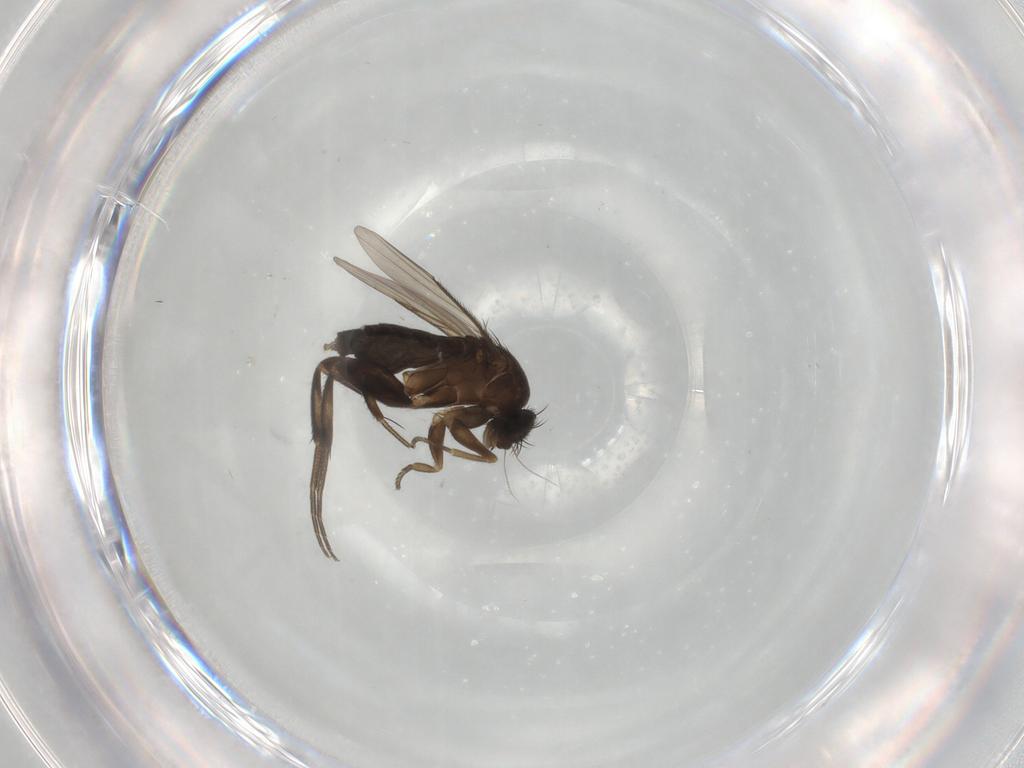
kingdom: Animalia
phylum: Arthropoda
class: Insecta
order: Diptera
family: Phoridae
